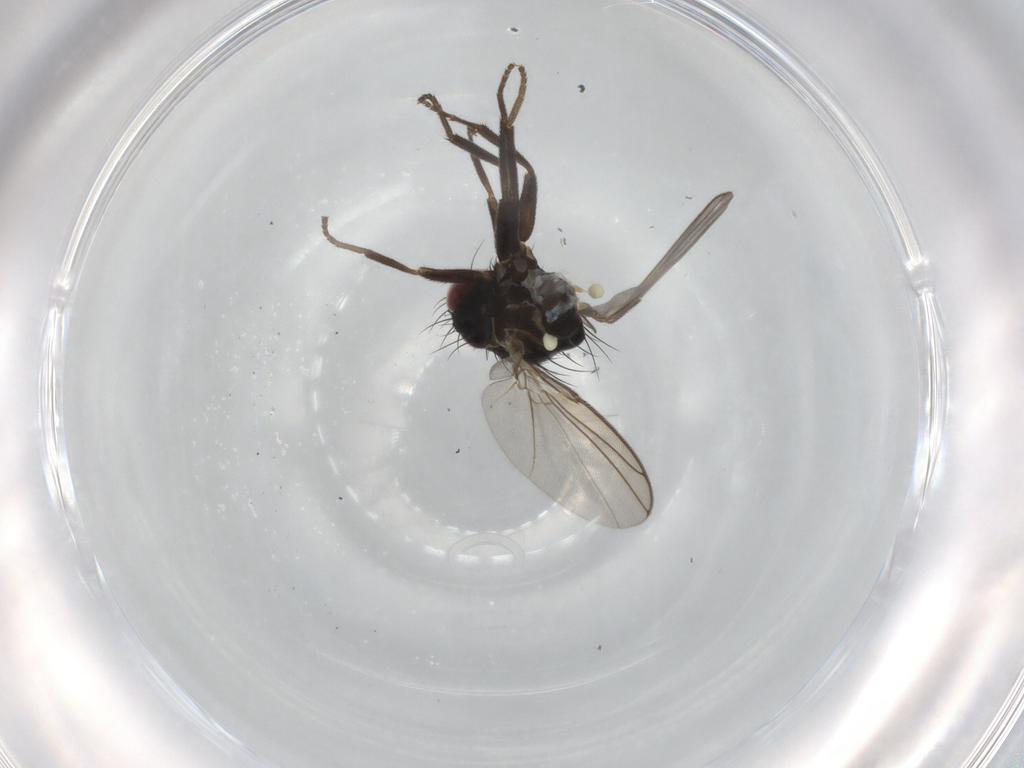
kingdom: Animalia
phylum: Arthropoda
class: Insecta
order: Diptera
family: Agromyzidae
